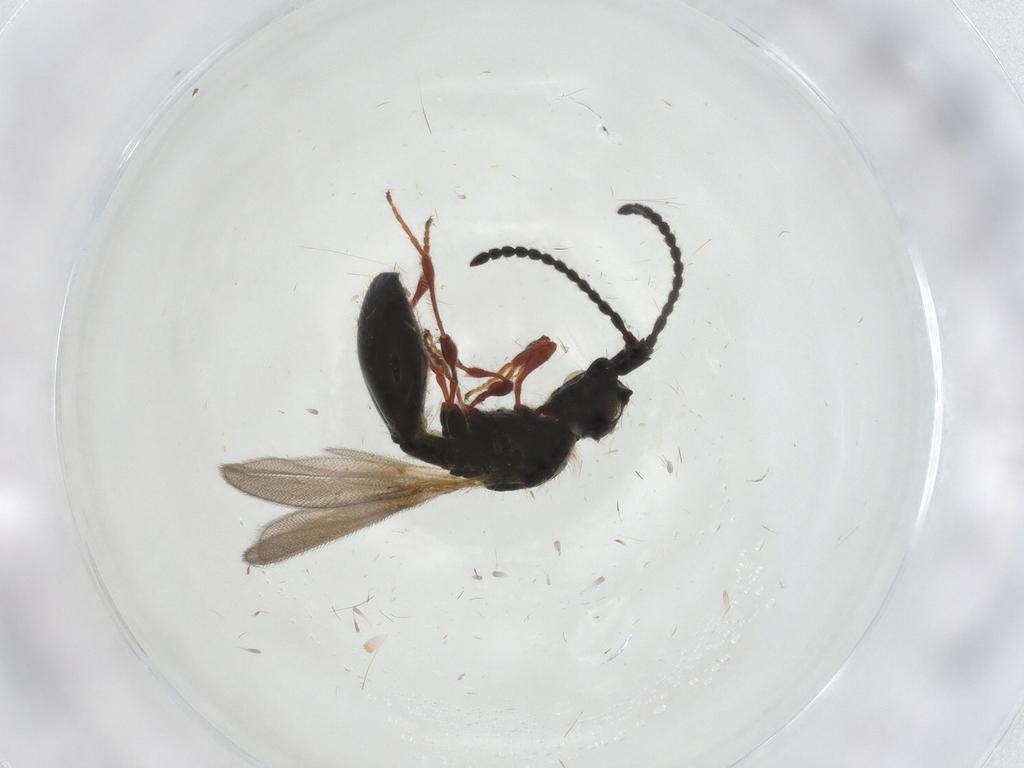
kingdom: Animalia
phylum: Arthropoda
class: Insecta
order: Hymenoptera
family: Diapriidae
